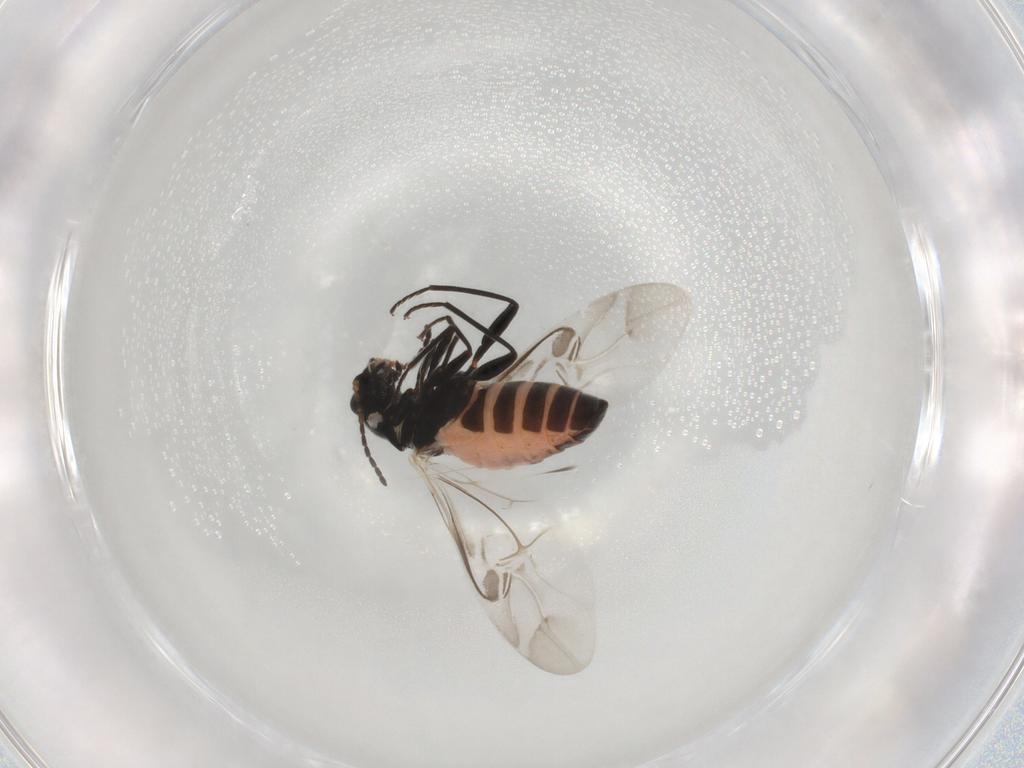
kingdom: Animalia
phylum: Arthropoda
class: Insecta
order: Coleoptera
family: Melyridae
